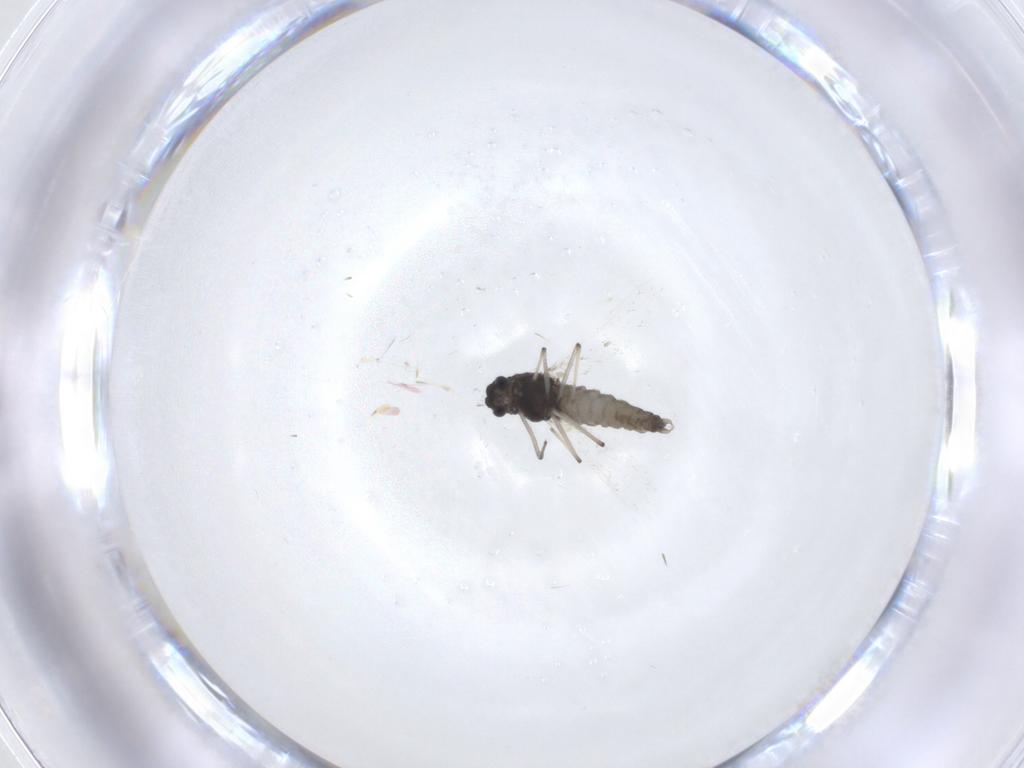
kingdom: Animalia
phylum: Arthropoda
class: Insecta
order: Diptera
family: Chironomidae
